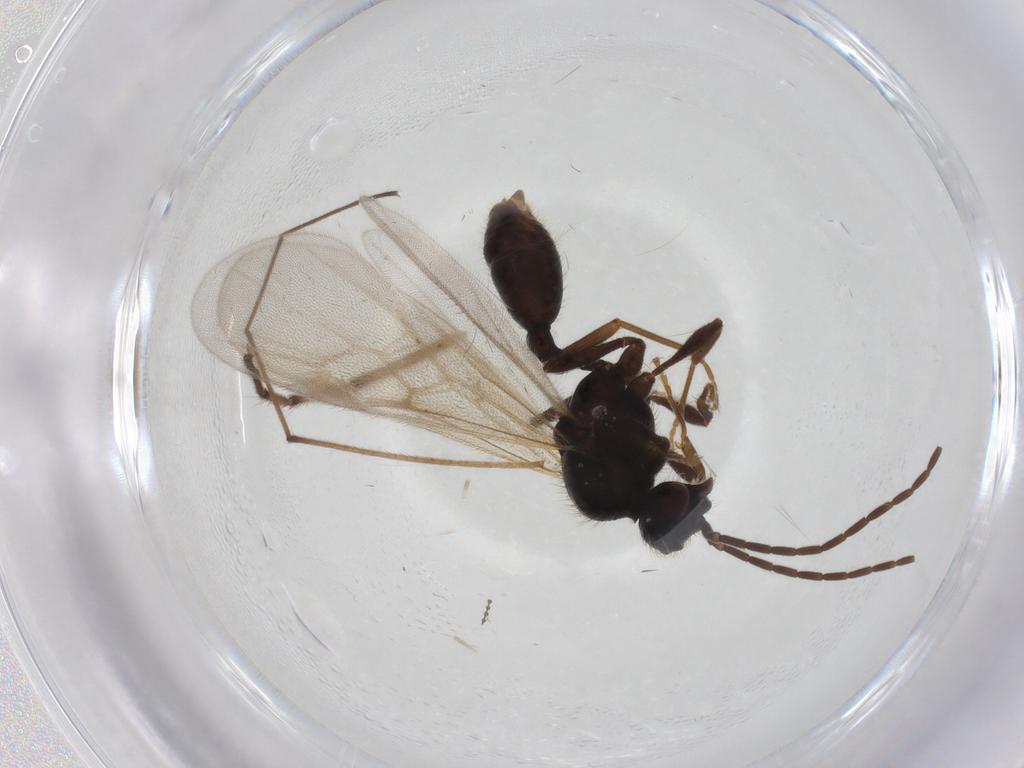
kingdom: Animalia
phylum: Arthropoda
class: Insecta
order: Hymenoptera
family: Formicidae
